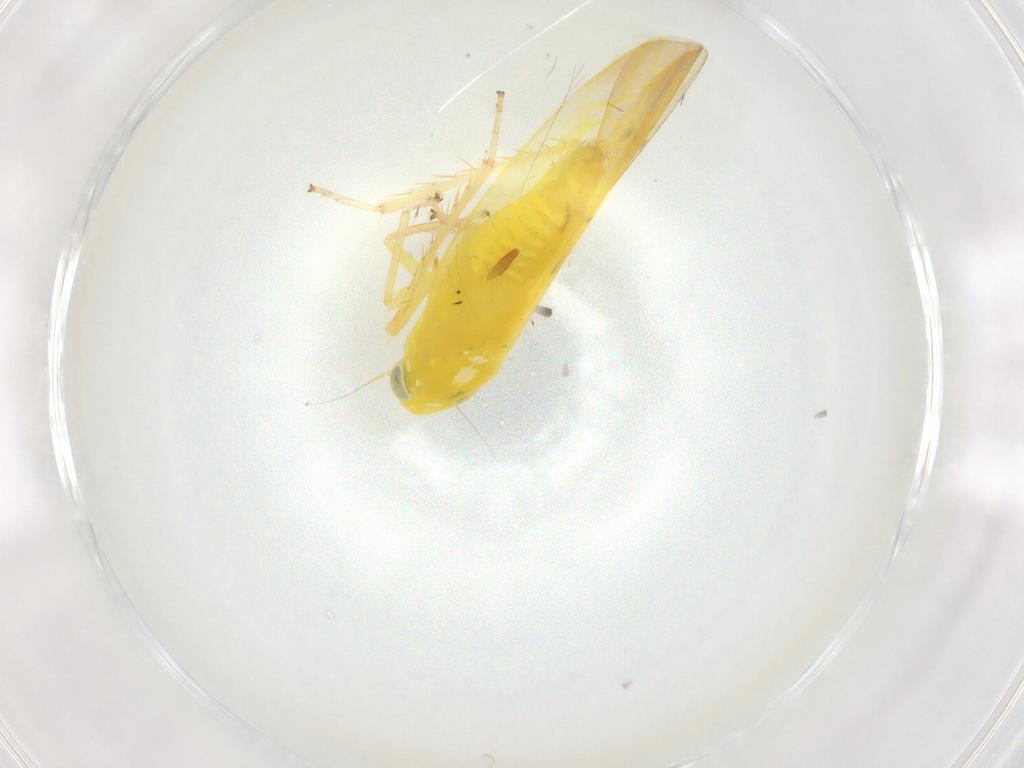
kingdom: Animalia
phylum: Arthropoda
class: Insecta
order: Hemiptera
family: Cicadellidae
